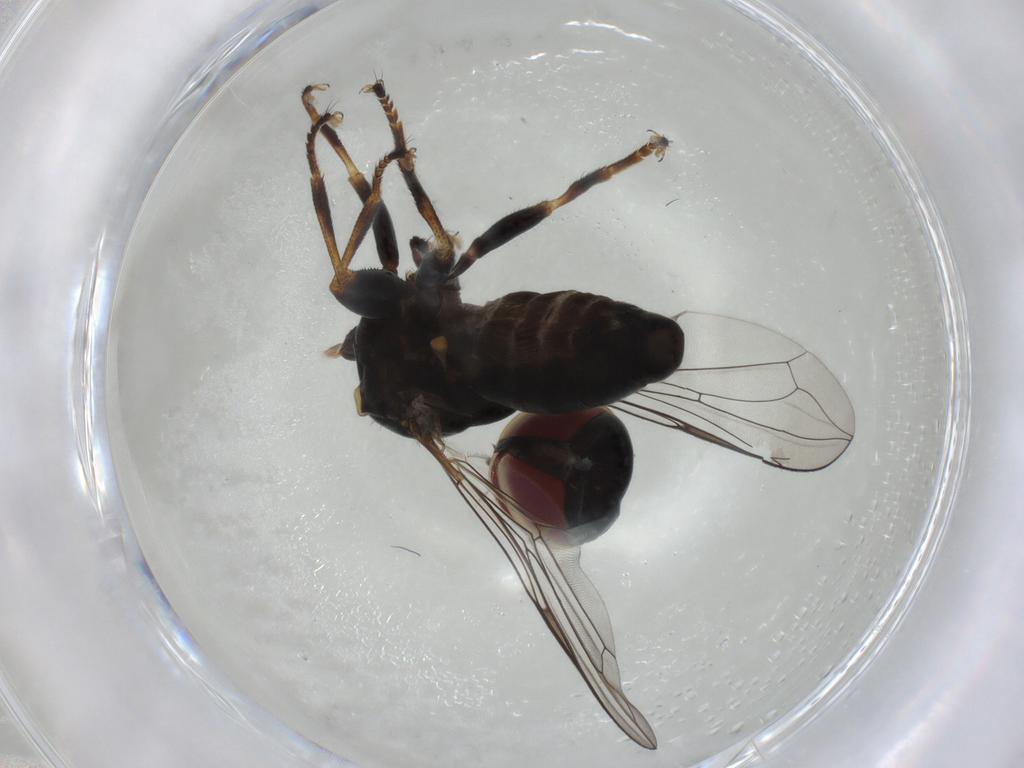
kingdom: Animalia
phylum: Arthropoda
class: Insecta
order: Diptera
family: Pipunculidae
